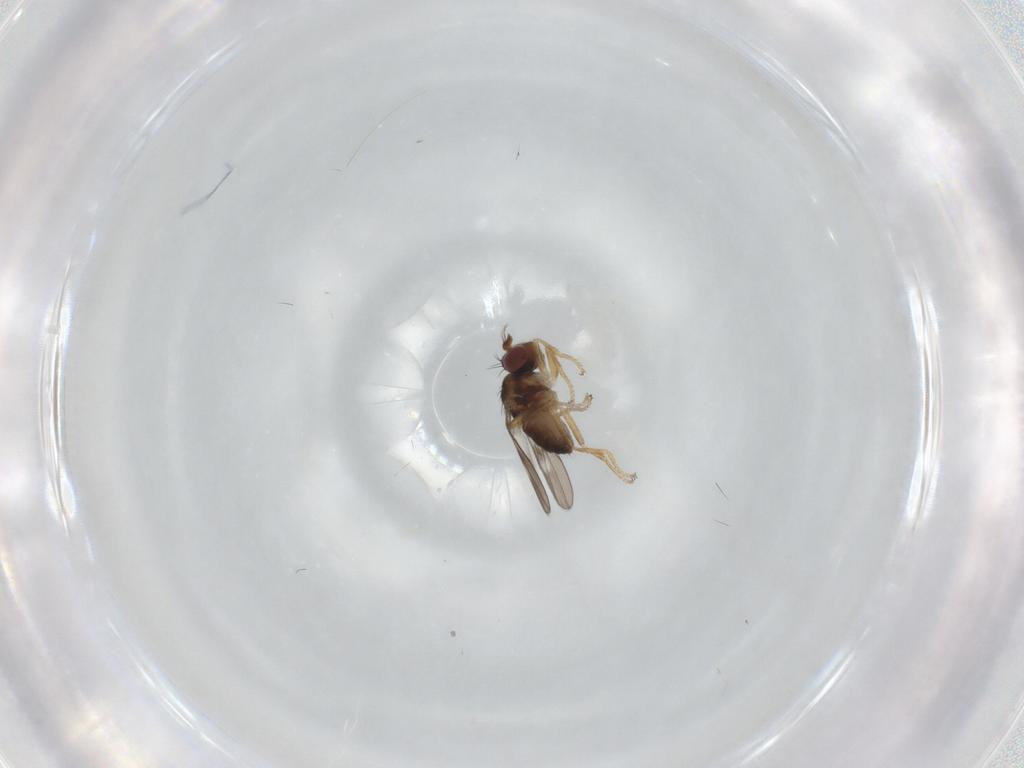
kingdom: Animalia
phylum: Arthropoda
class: Insecta
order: Diptera
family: Ephydridae
